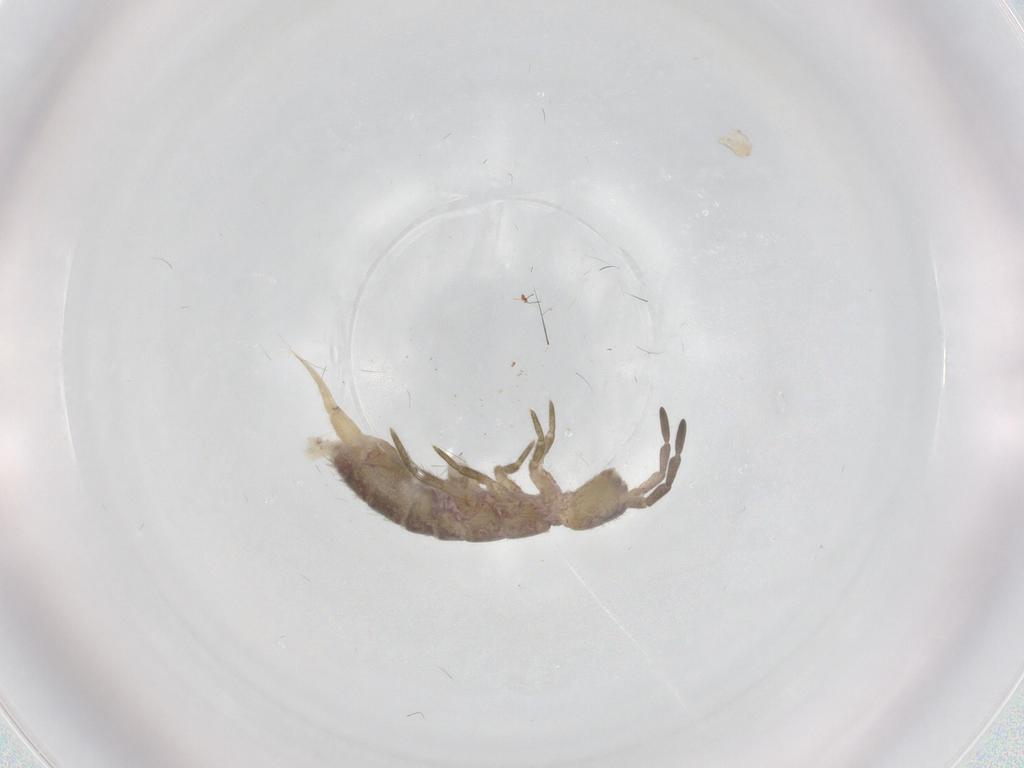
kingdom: Animalia
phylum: Arthropoda
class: Collembola
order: Entomobryomorpha
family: Isotomidae
